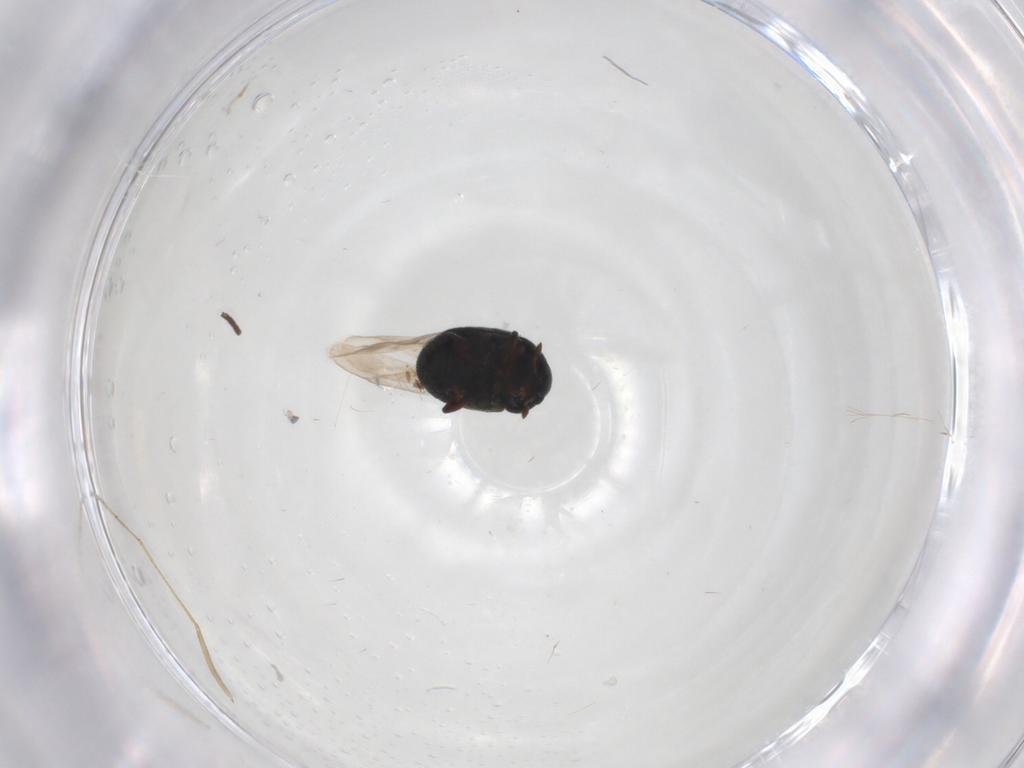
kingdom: Animalia
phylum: Arthropoda
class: Insecta
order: Coleoptera
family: Anthribidae
